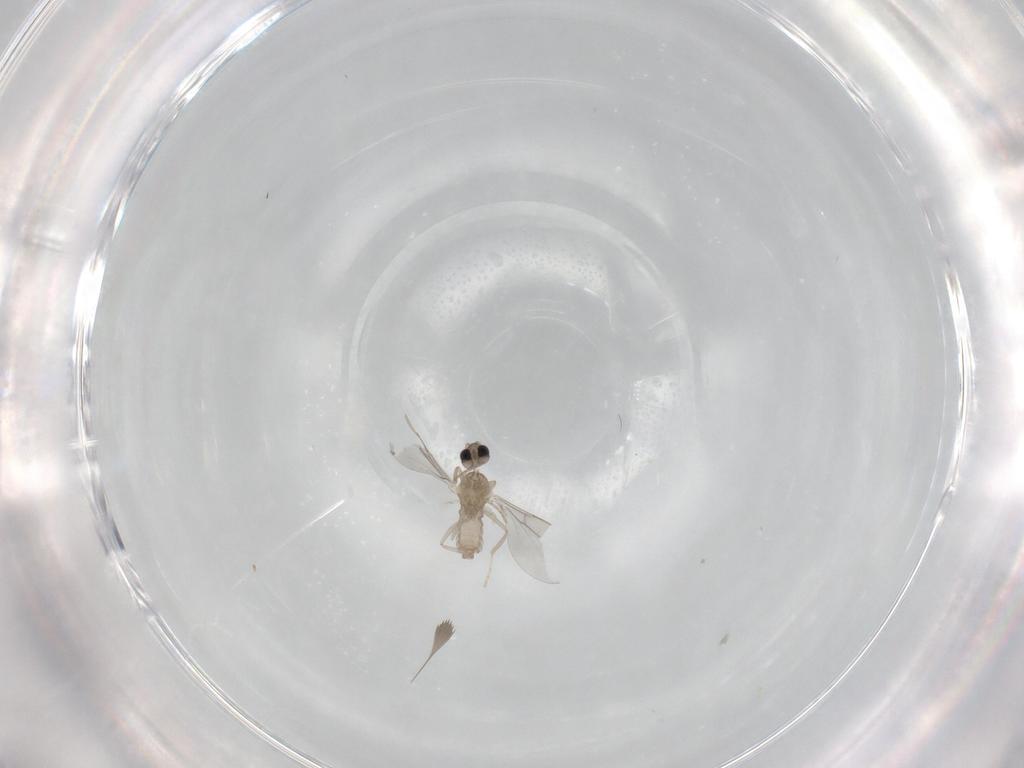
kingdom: Animalia
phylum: Arthropoda
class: Insecta
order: Diptera
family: Cecidomyiidae
